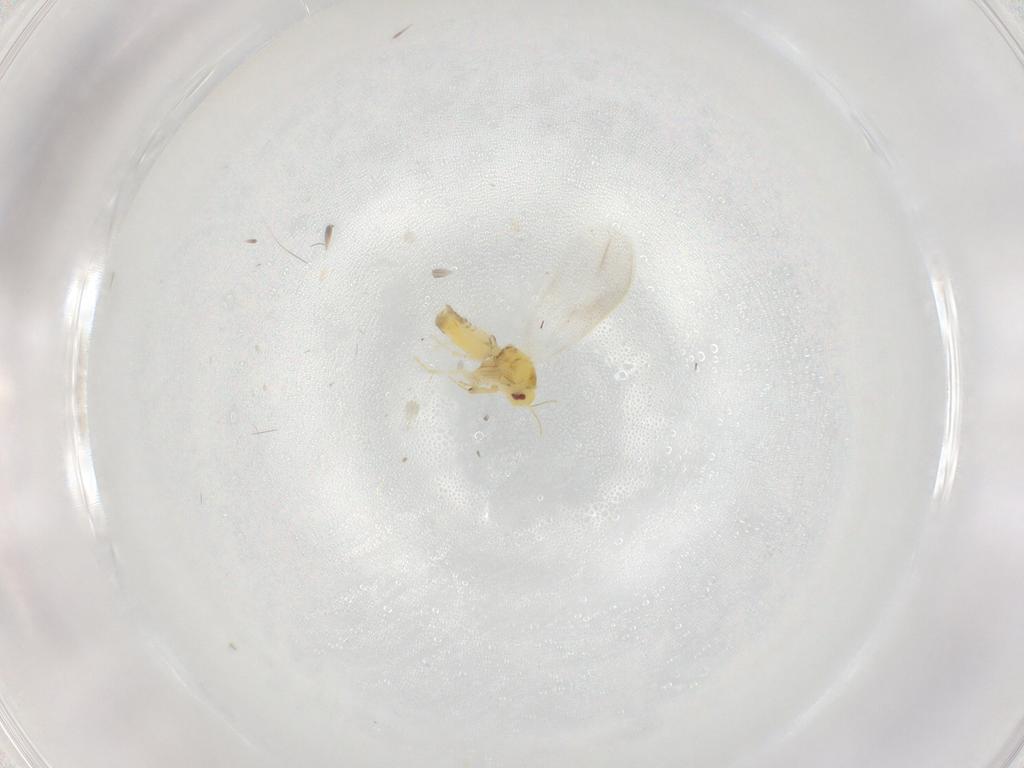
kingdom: Animalia
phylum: Arthropoda
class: Insecta
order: Hemiptera
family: Aleyrodidae
